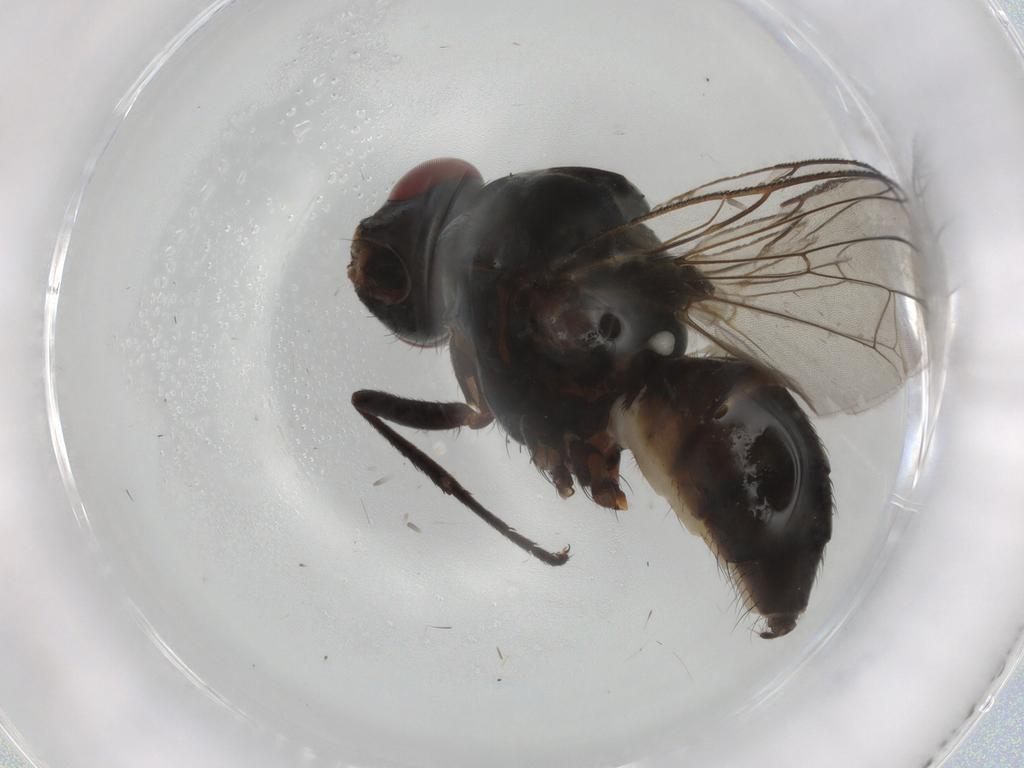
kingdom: Animalia
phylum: Arthropoda
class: Insecta
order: Diptera
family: Anthomyiidae
